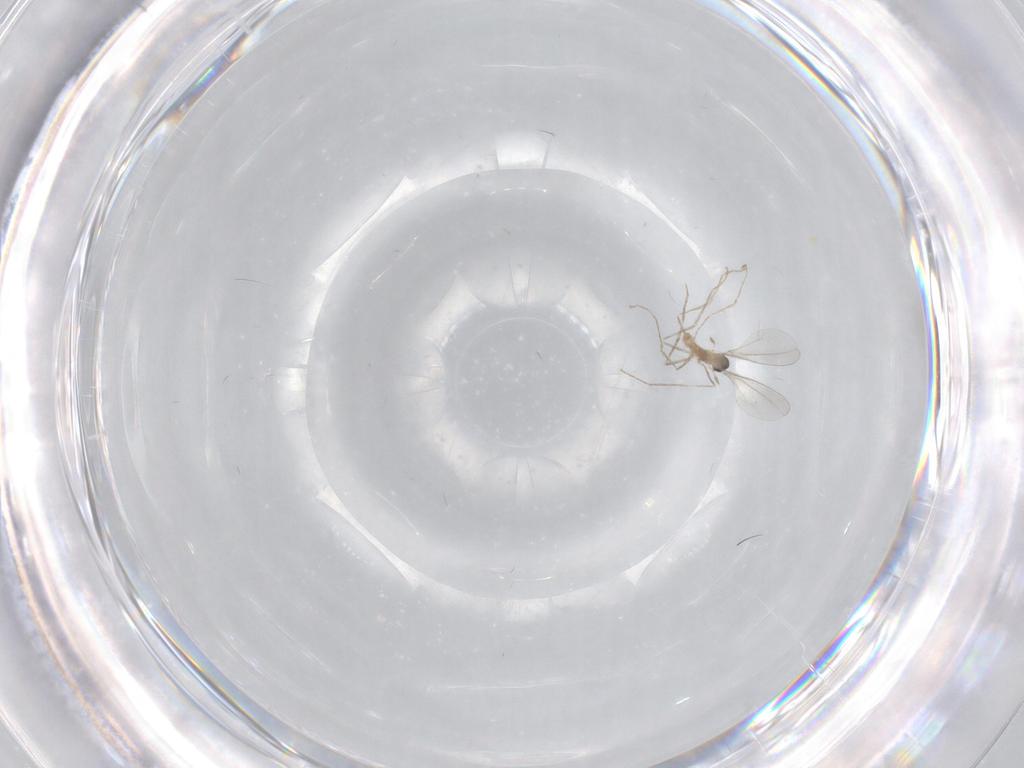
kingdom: Animalia
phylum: Arthropoda
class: Insecta
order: Diptera
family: Cecidomyiidae
